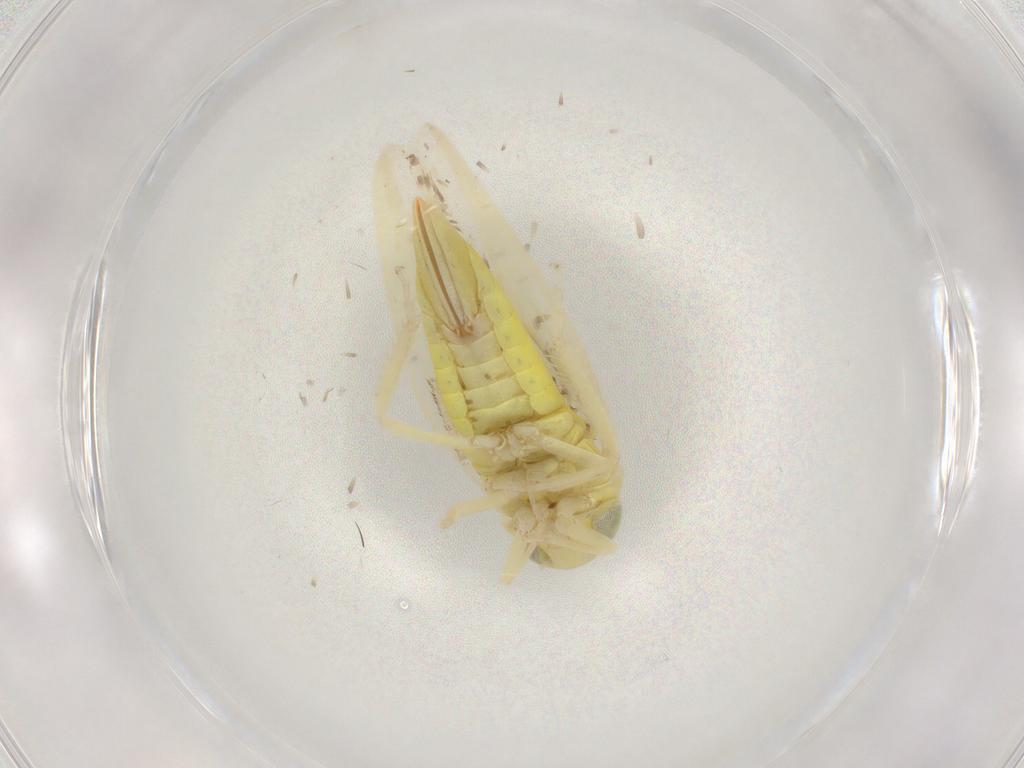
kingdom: Animalia
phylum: Arthropoda
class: Insecta
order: Hemiptera
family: Cicadellidae
